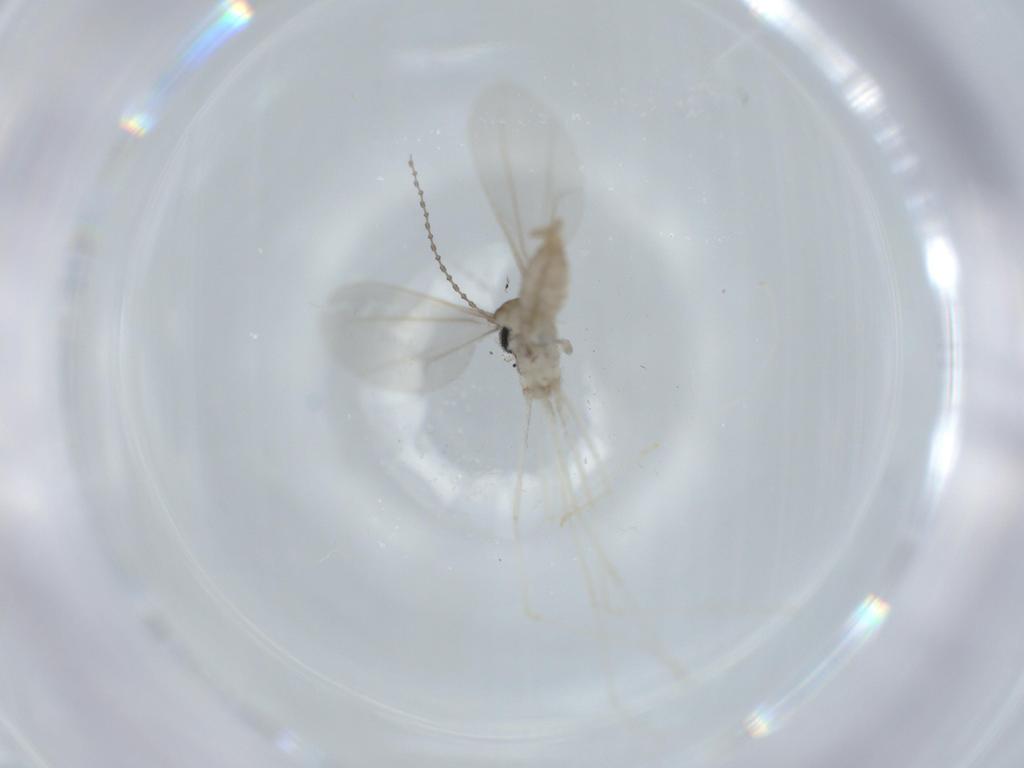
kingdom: Animalia
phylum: Arthropoda
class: Insecta
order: Diptera
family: Cecidomyiidae
